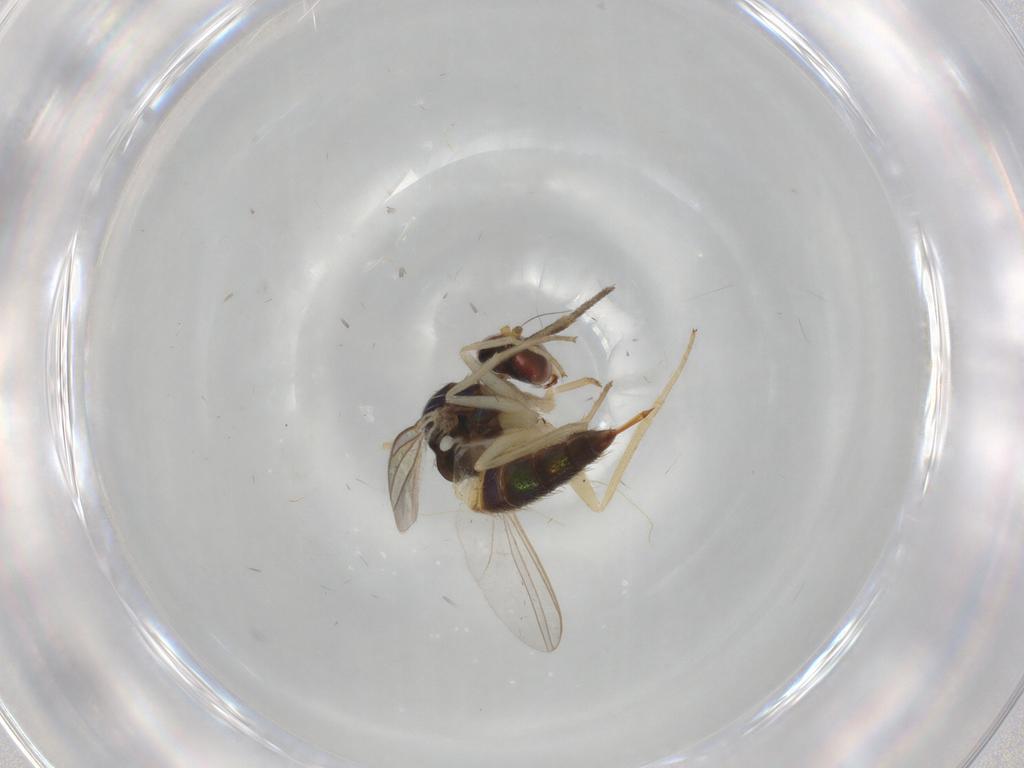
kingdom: Animalia
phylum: Arthropoda
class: Insecta
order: Diptera
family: Dolichopodidae
